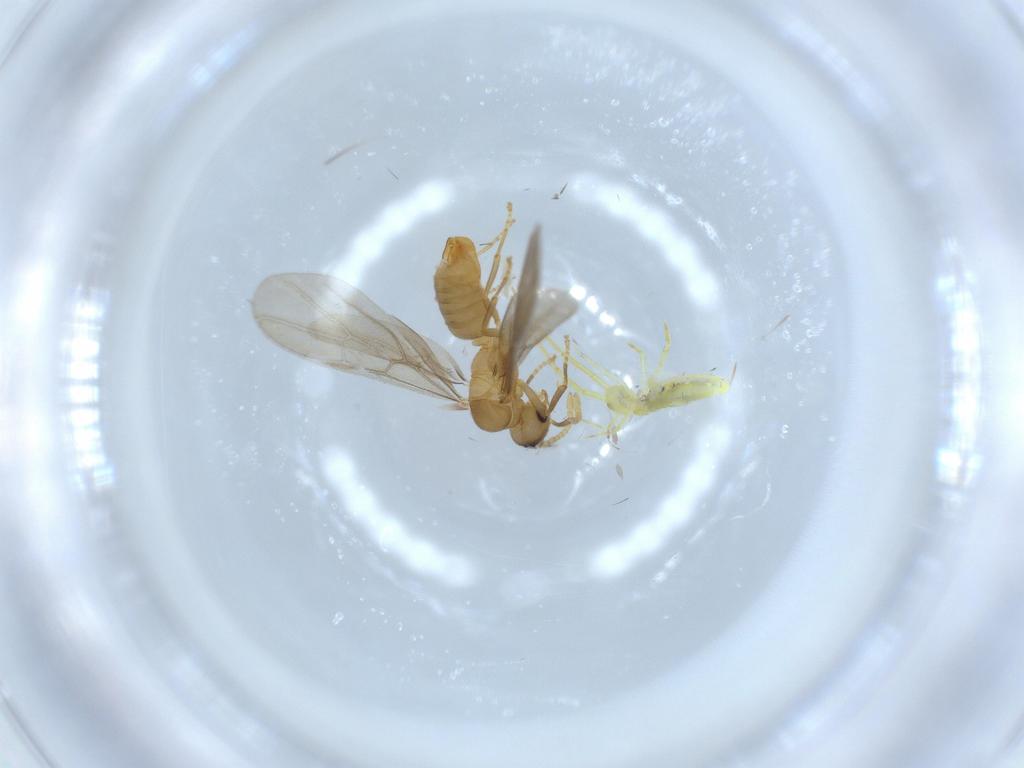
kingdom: Animalia
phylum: Arthropoda
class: Collembola
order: Entomobryomorpha
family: Paronellidae
